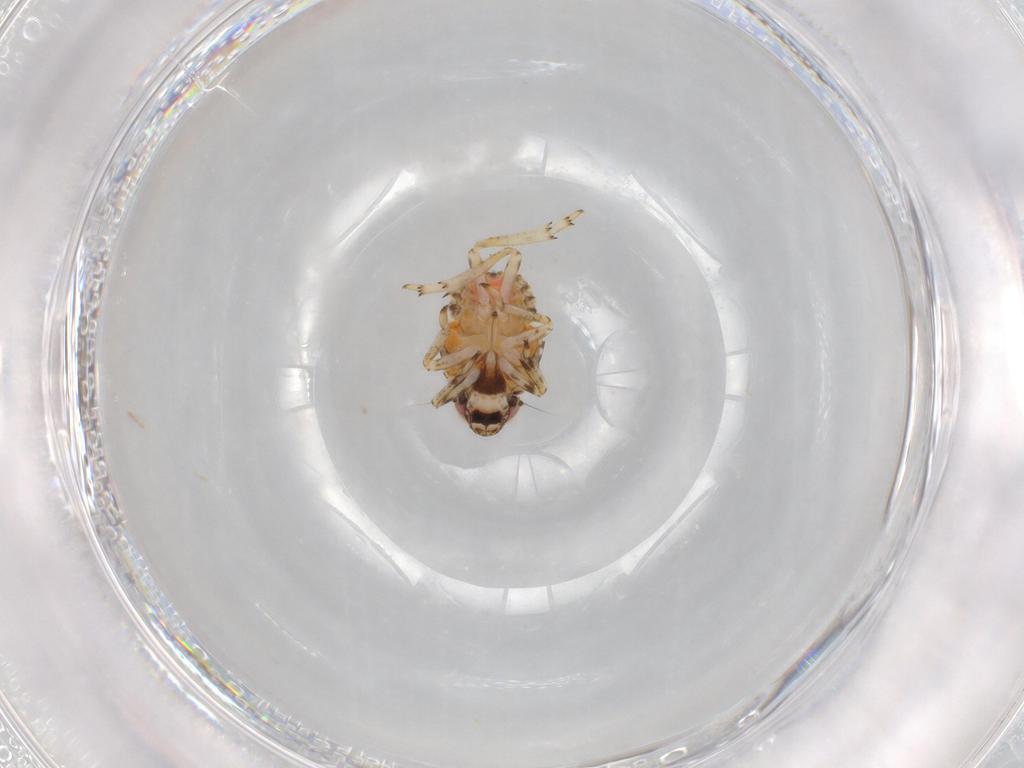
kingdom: Animalia
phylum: Arthropoda
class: Insecta
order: Hemiptera
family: Issidae
